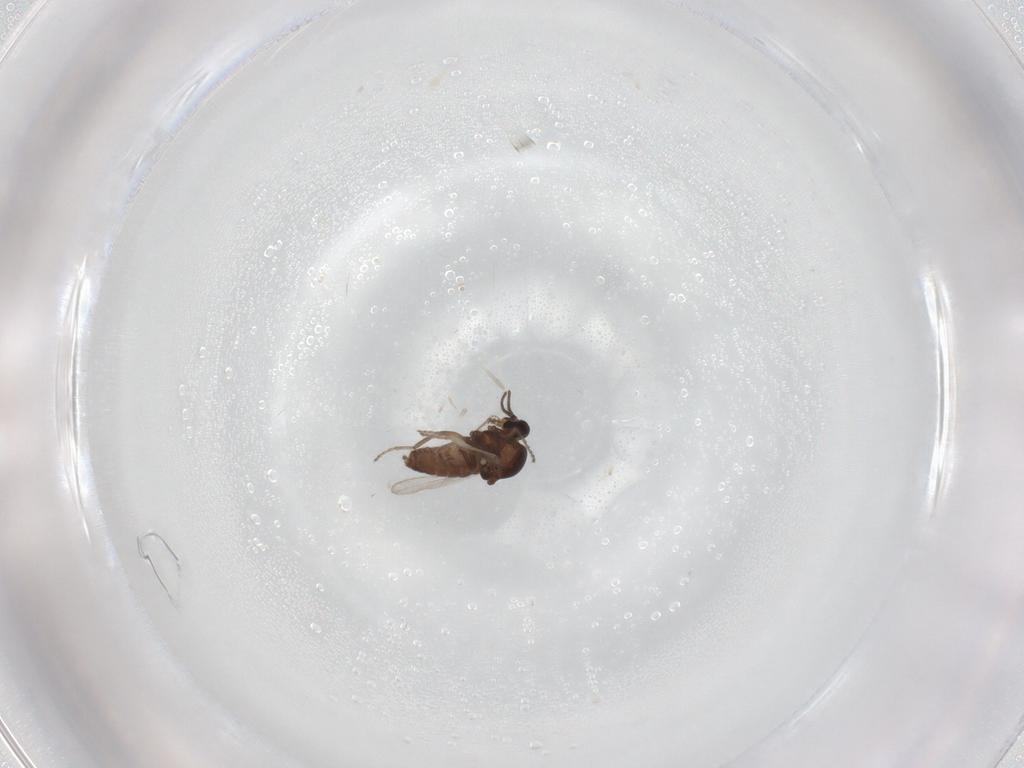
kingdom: Animalia
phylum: Arthropoda
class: Insecta
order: Diptera
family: Ceratopogonidae
